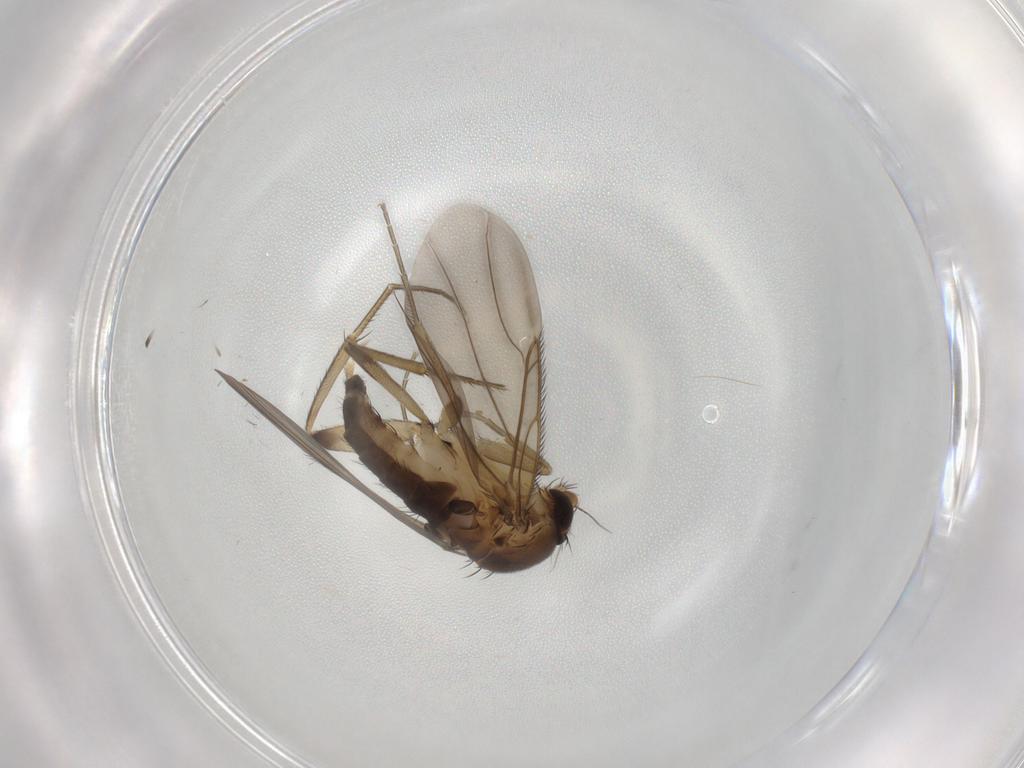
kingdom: Animalia
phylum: Arthropoda
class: Insecta
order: Diptera
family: Phoridae
